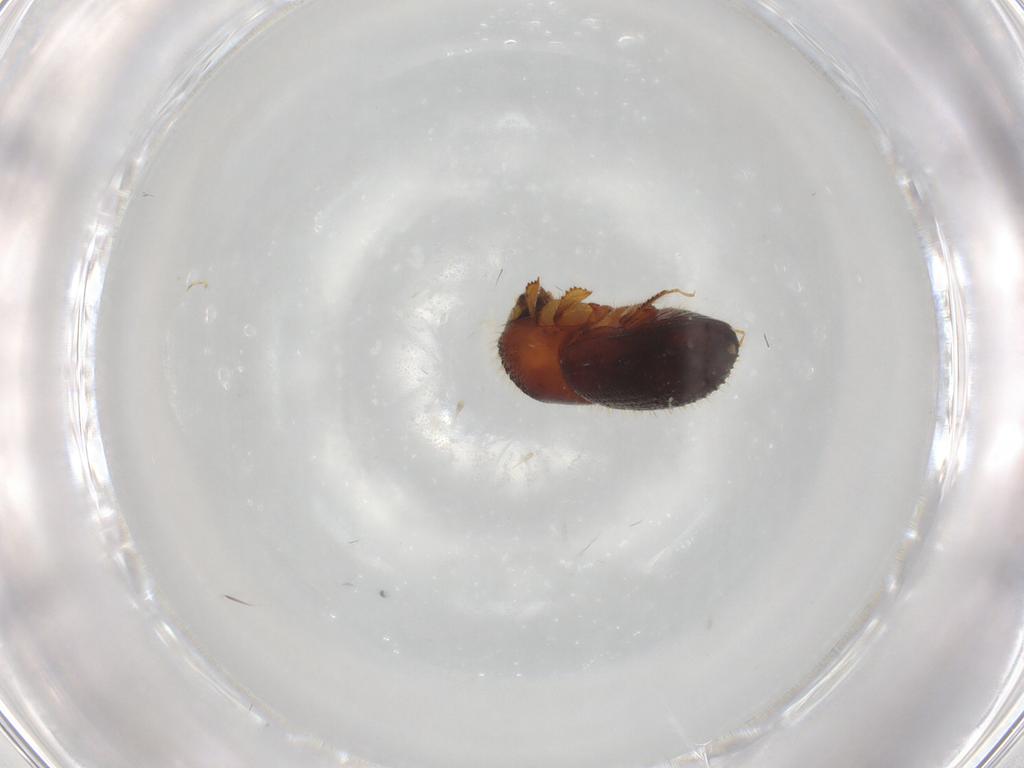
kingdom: Animalia
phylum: Arthropoda
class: Insecta
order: Coleoptera
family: Curculionidae
